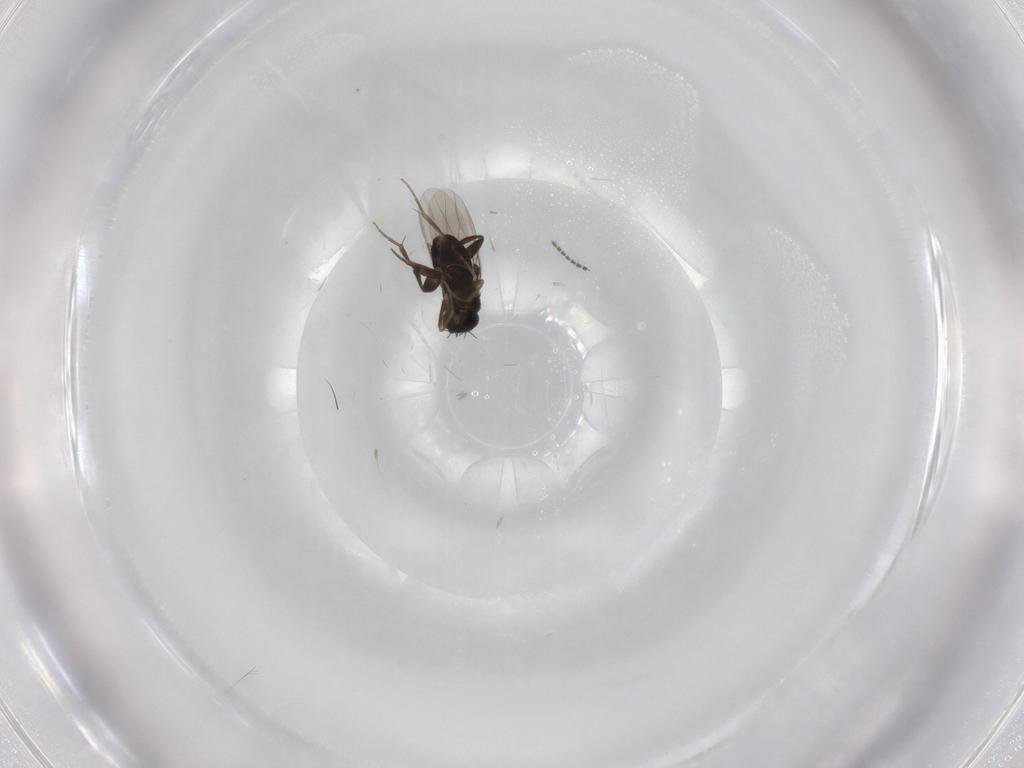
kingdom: Animalia
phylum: Arthropoda
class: Insecta
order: Diptera
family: Phoridae
